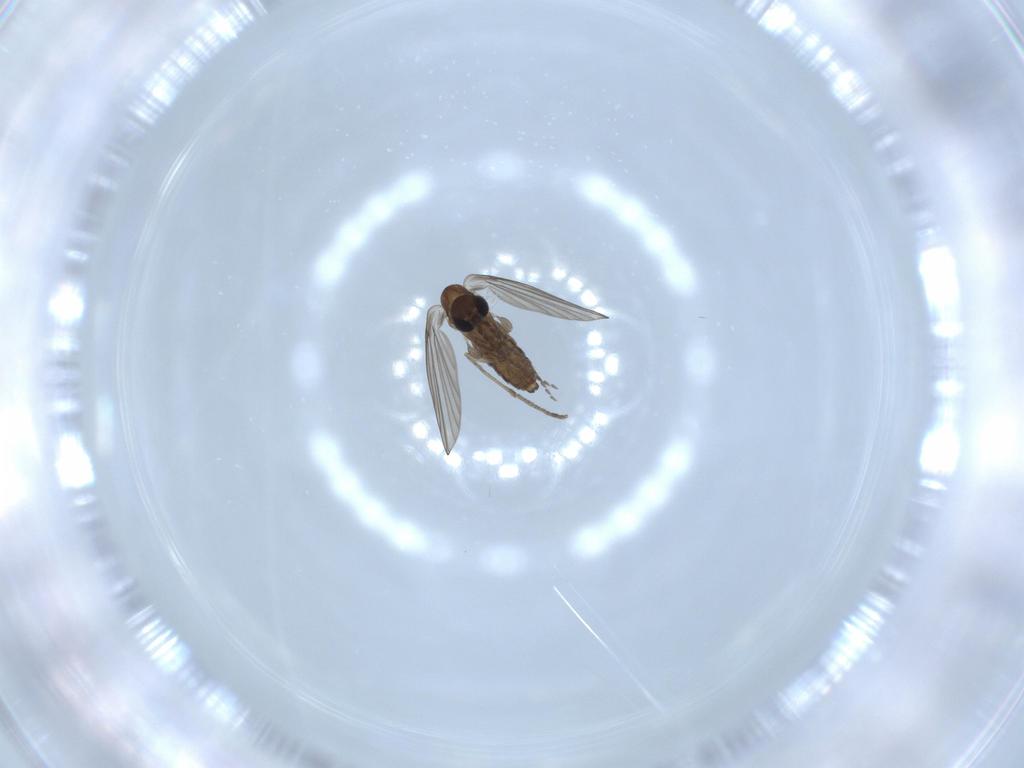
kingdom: Animalia
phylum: Arthropoda
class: Insecta
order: Diptera
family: Psychodidae
